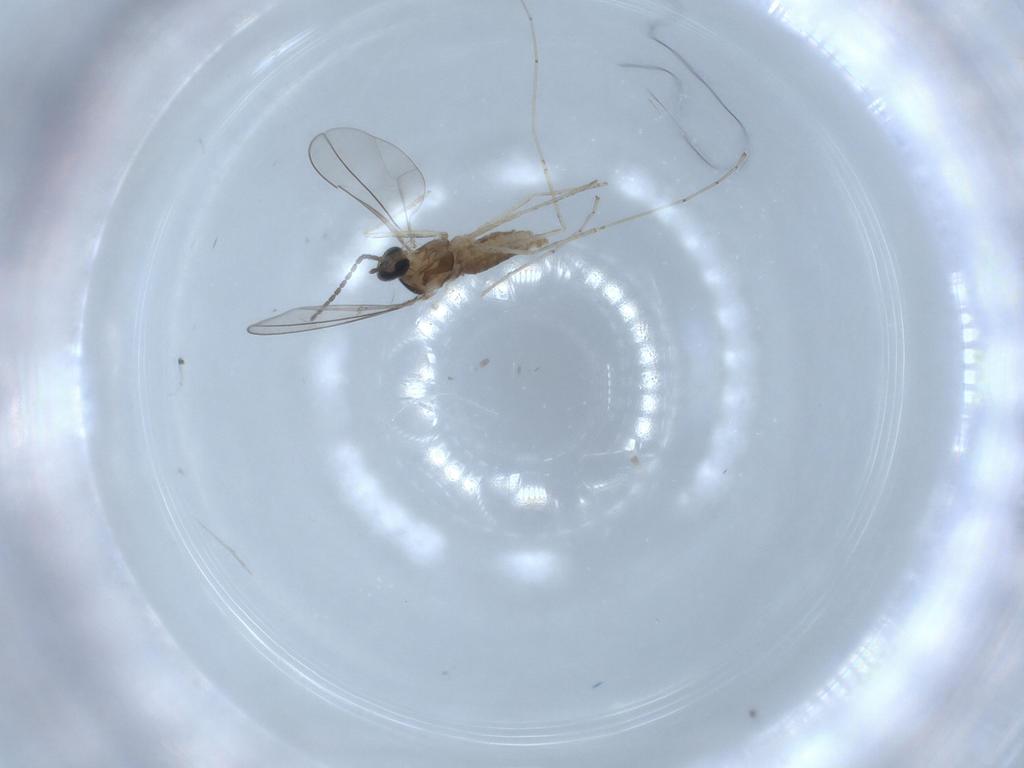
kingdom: Animalia
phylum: Arthropoda
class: Insecta
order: Diptera
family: Cecidomyiidae
